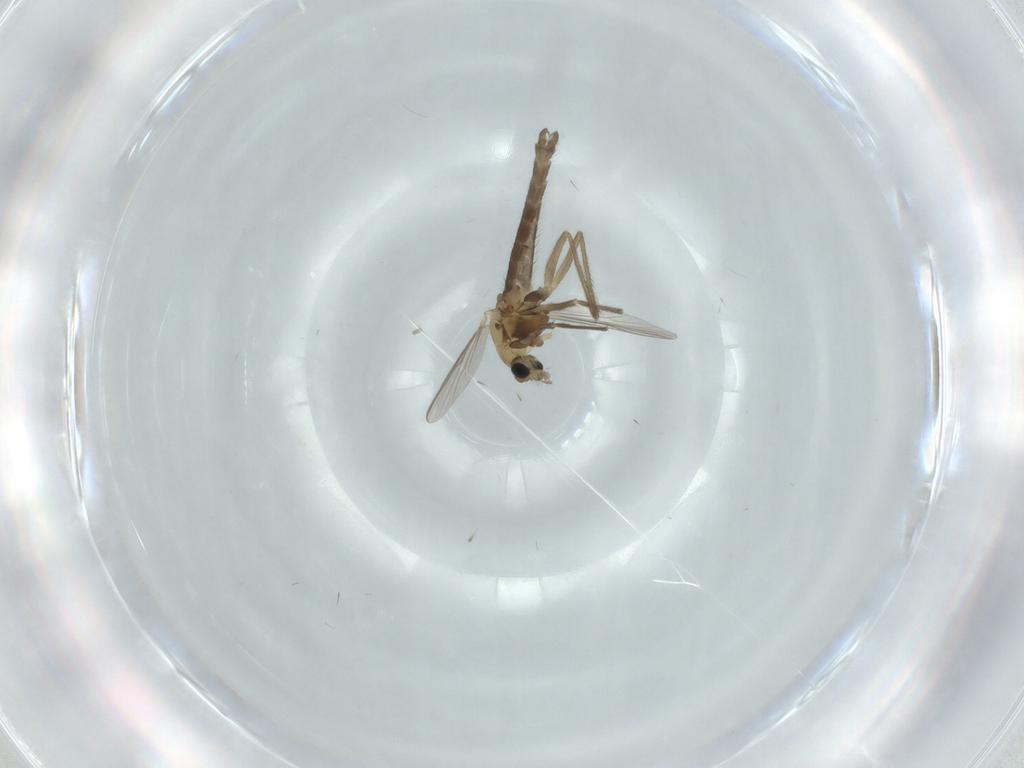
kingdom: Animalia
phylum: Arthropoda
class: Insecta
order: Diptera
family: Chironomidae
